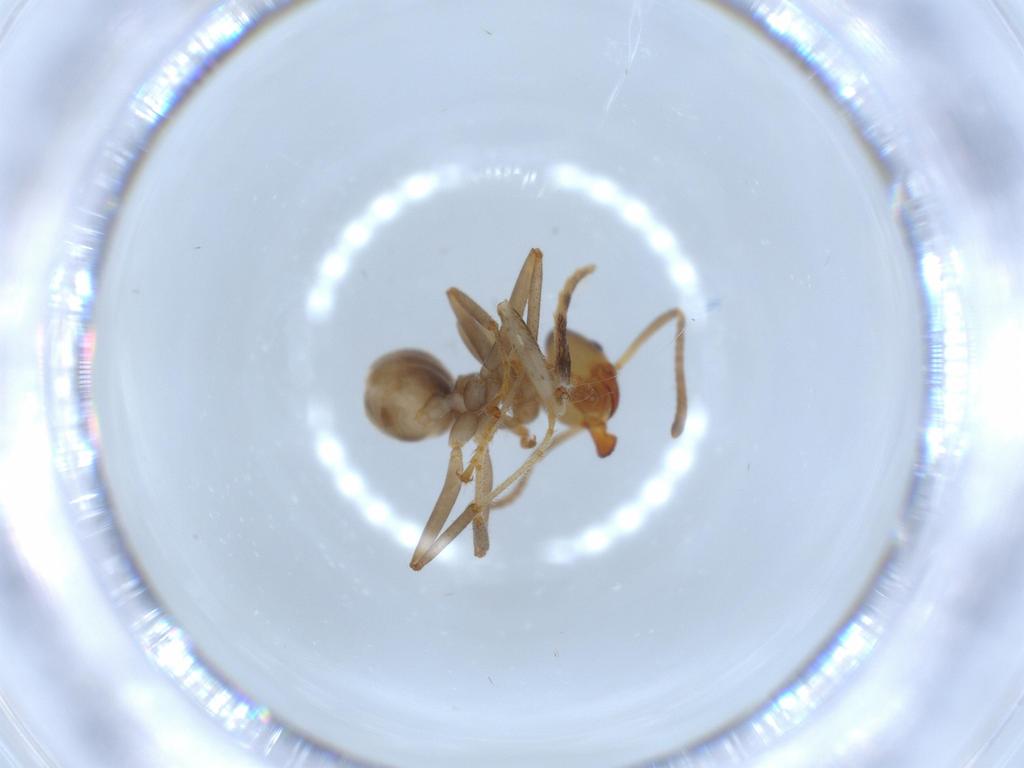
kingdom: Animalia
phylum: Arthropoda
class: Insecta
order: Hymenoptera
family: Formicidae
